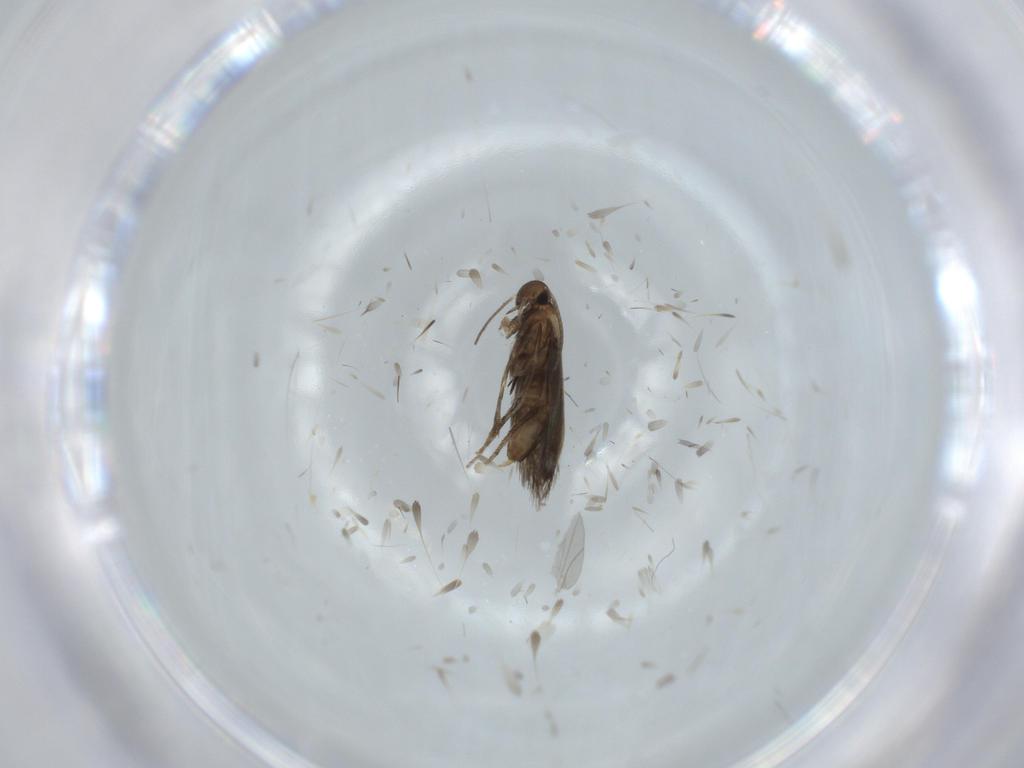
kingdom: Animalia
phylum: Arthropoda
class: Insecta
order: Lepidoptera
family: Heliozelidae
